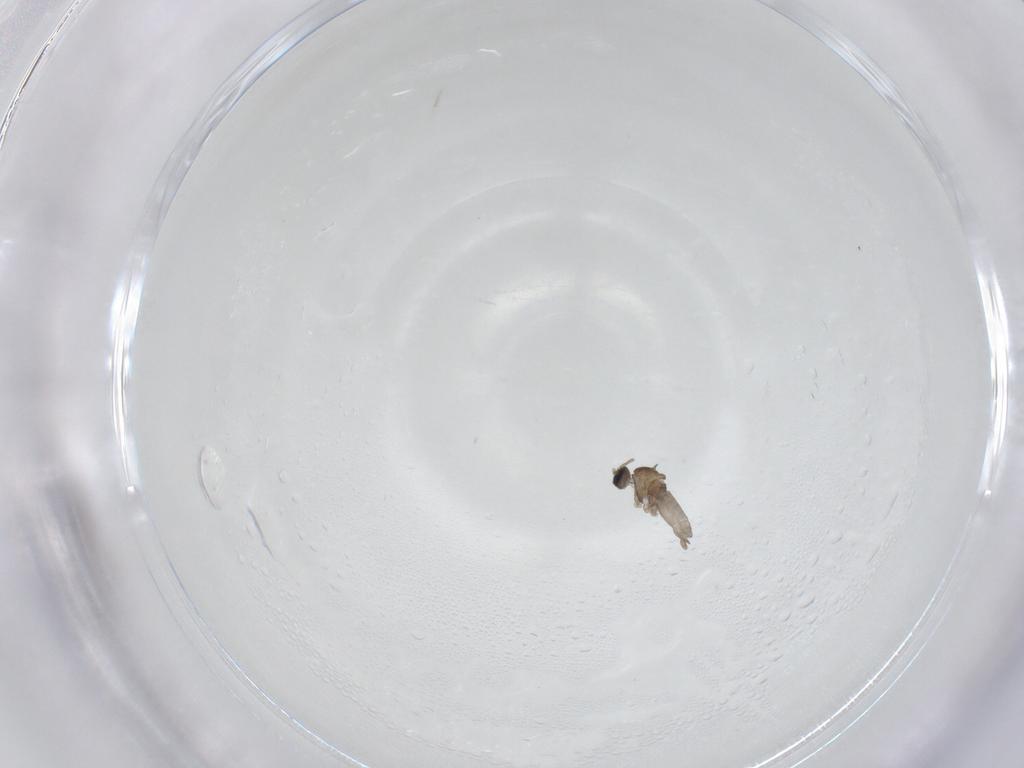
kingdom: Animalia
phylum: Arthropoda
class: Insecta
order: Diptera
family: Cecidomyiidae
